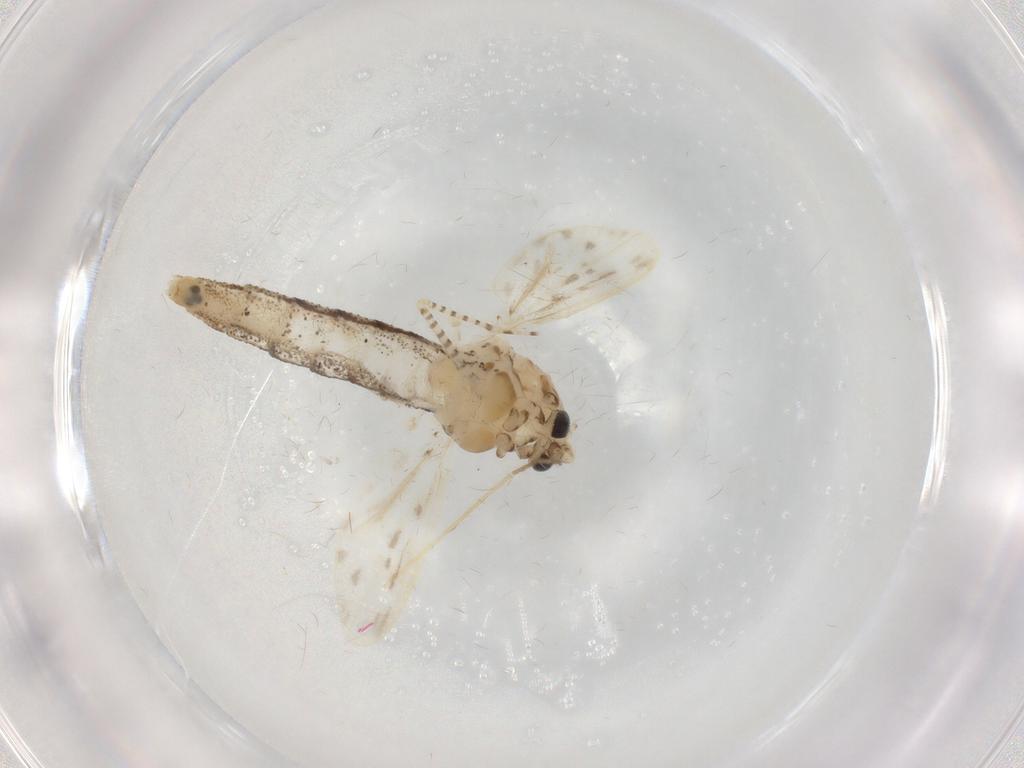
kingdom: Animalia
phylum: Arthropoda
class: Insecta
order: Diptera
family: Chaoboridae
